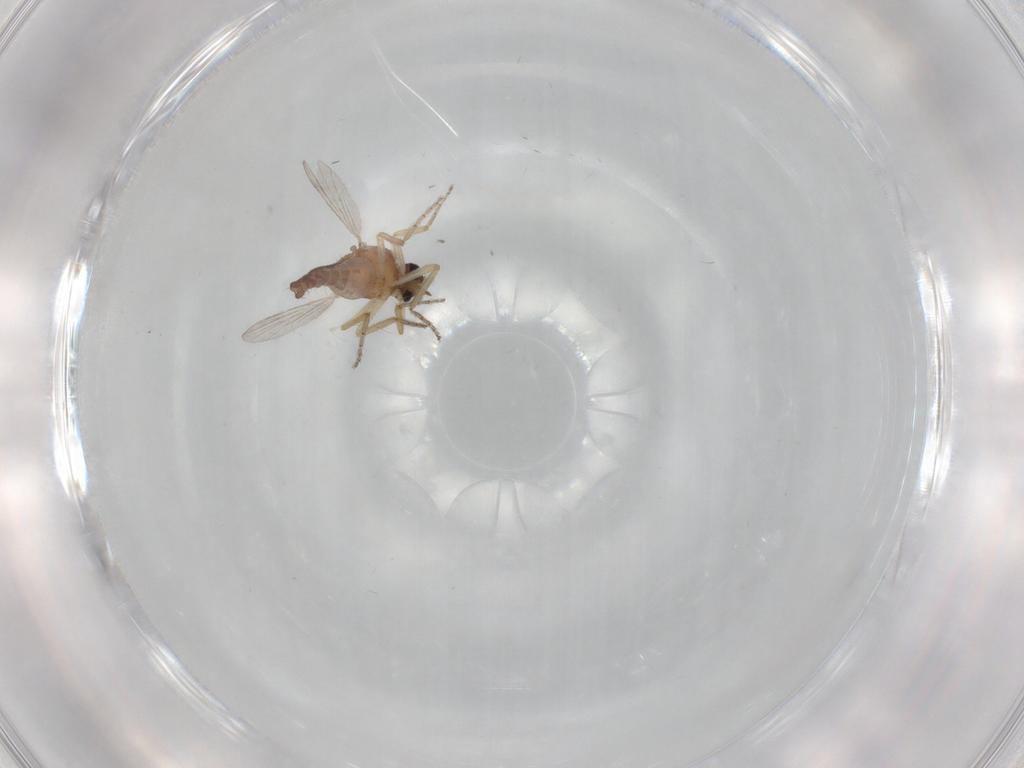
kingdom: Animalia
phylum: Arthropoda
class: Insecta
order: Diptera
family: Ceratopogonidae
